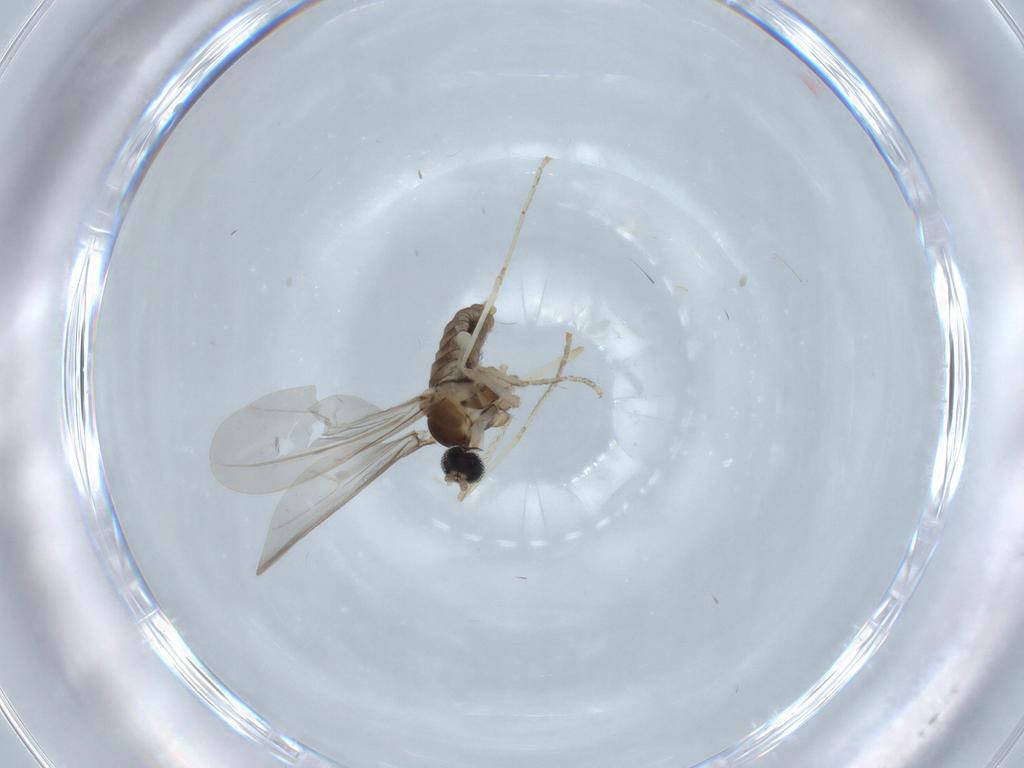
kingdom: Animalia
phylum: Arthropoda
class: Insecta
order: Diptera
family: Cecidomyiidae
